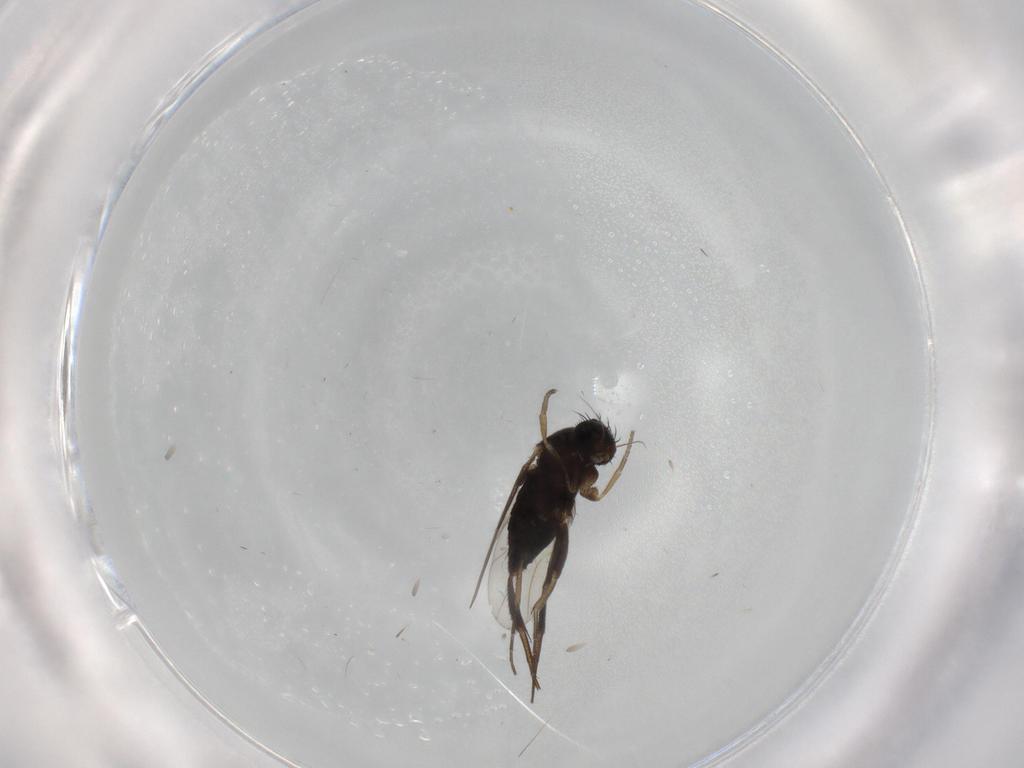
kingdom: Animalia
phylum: Arthropoda
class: Insecta
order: Diptera
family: Phoridae
